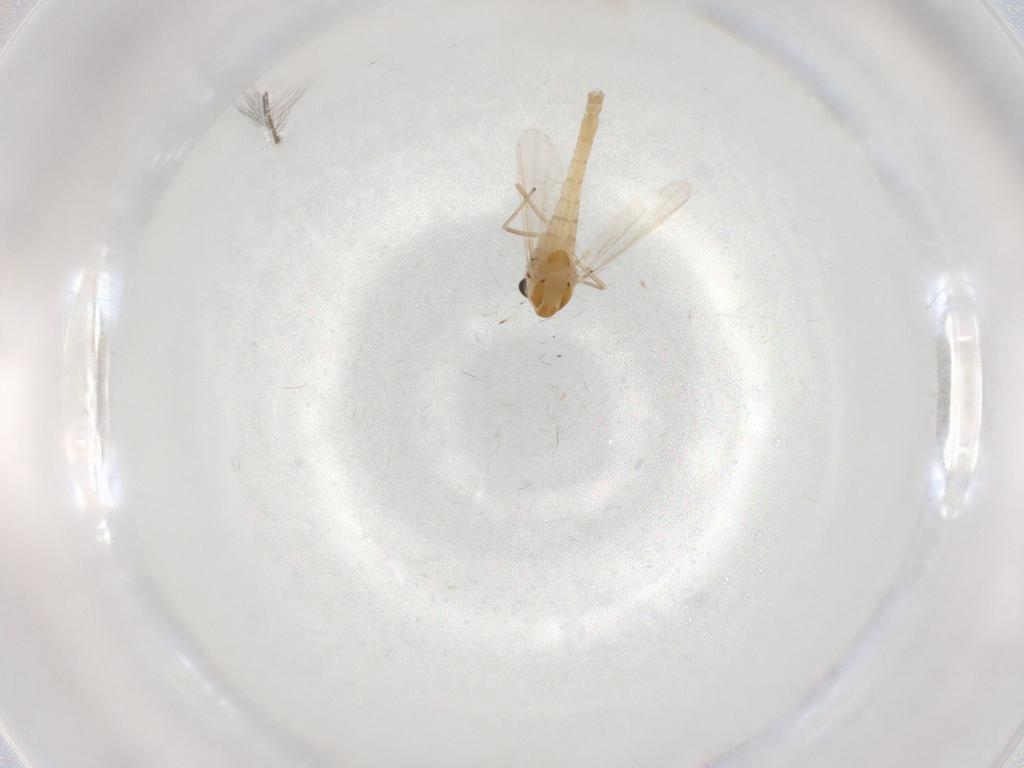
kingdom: Animalia
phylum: Arthropoda
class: Insecta
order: Diptera
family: Chironomidae
